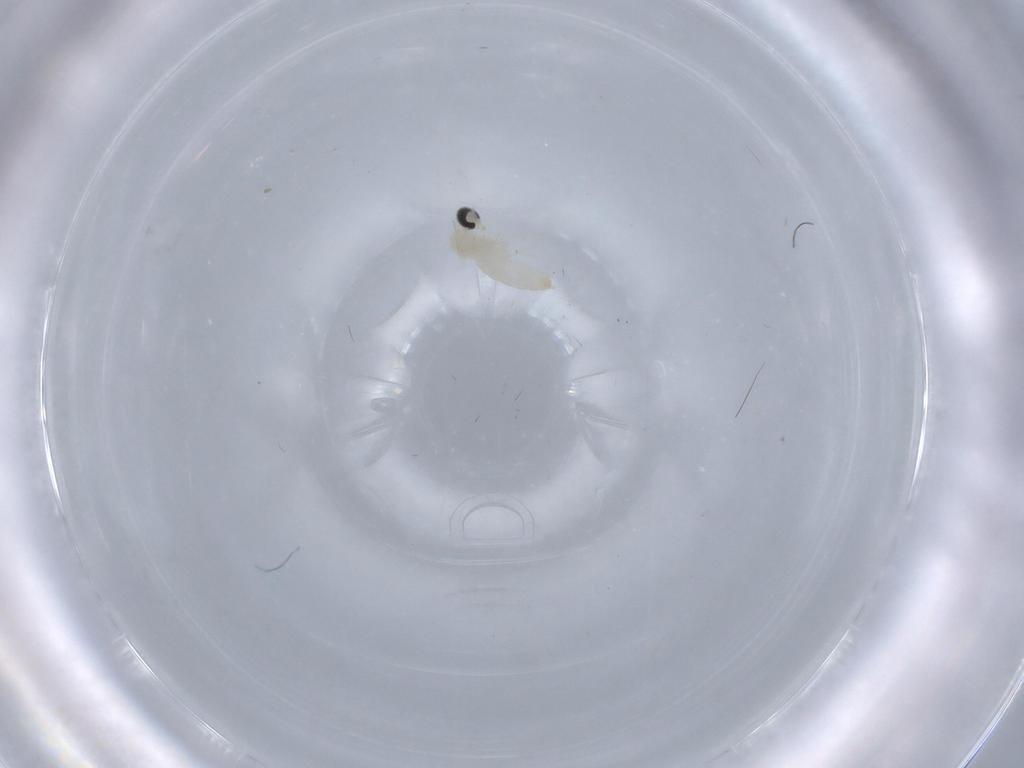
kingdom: Animalia
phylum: Arthropoda
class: Insecta
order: Diptera
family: Cecidomyiidae
